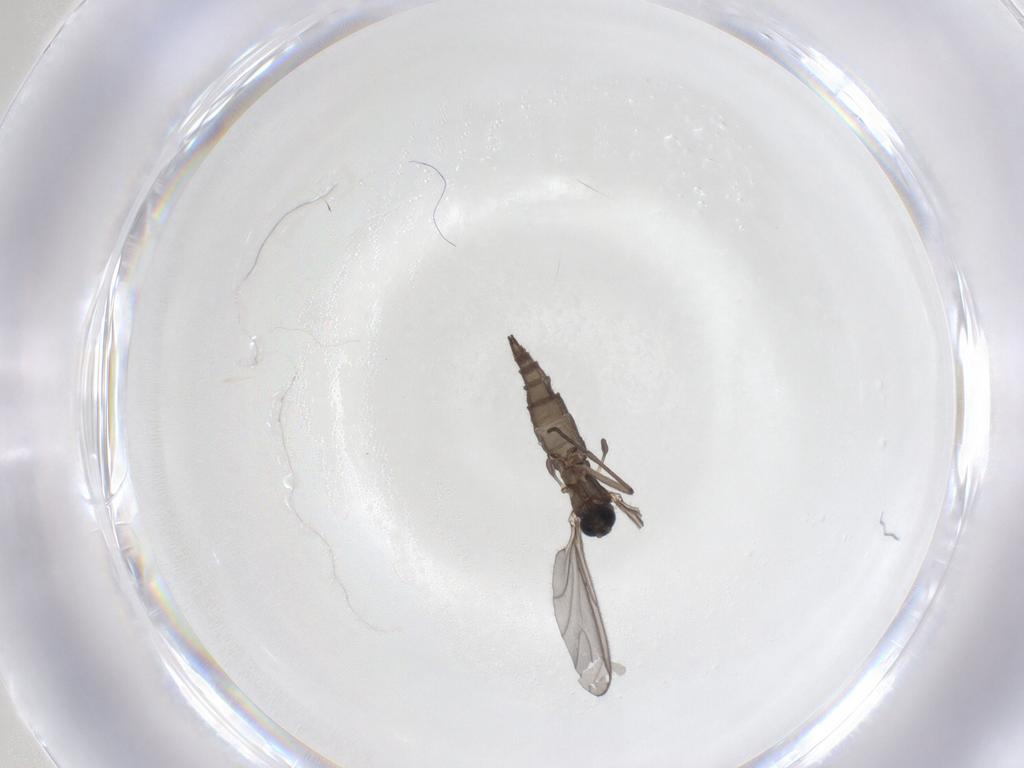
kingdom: Animalia
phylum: Arthropoda
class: Insecta
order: Diptera
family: Sciaridae
